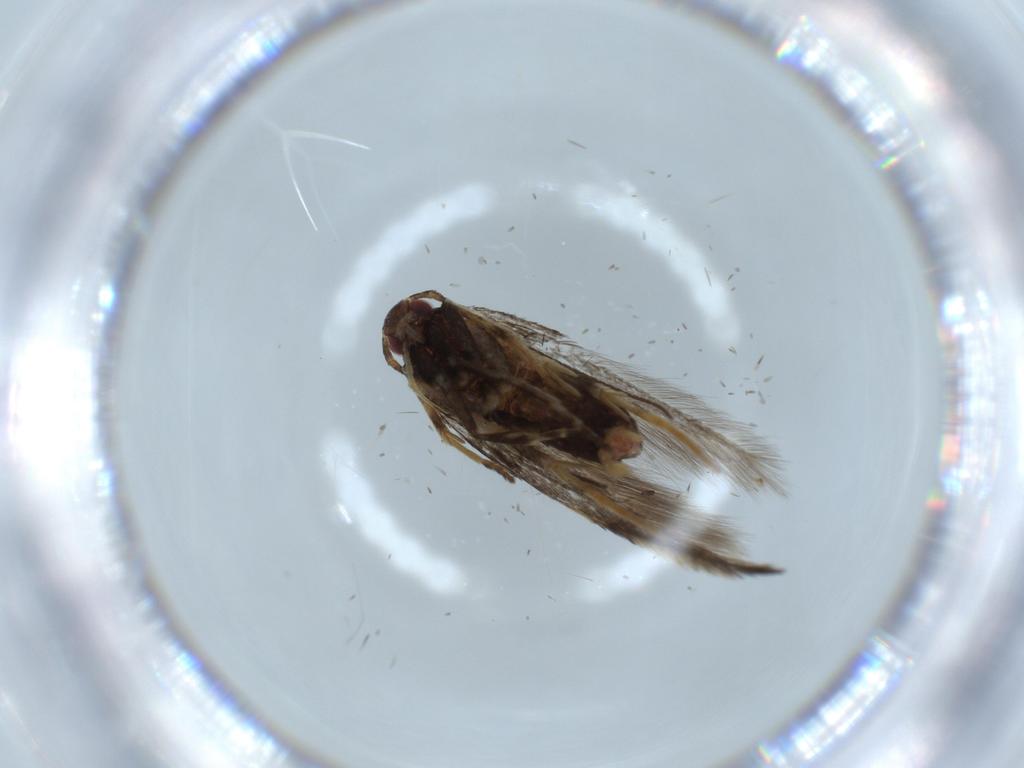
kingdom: Animalia
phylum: Arthropoda
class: Insecta
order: Lepidoptera
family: Cosmopterigidae
